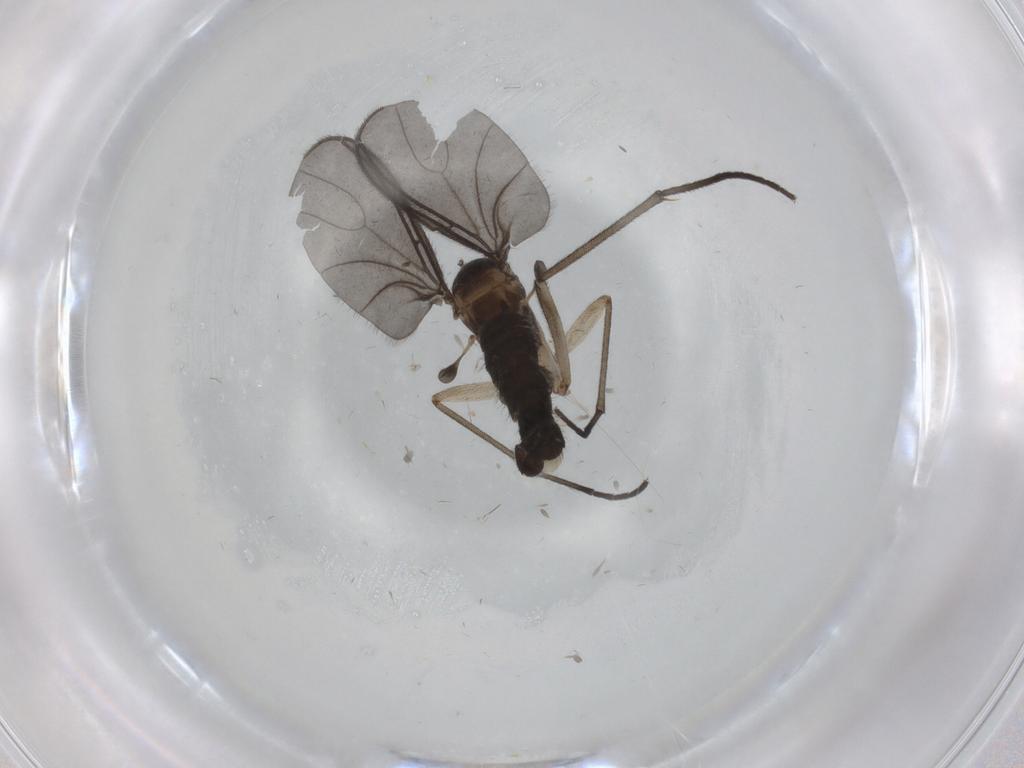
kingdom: Animalia
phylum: Arthropoda
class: Insecta
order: Diptera
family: Sciaridae
